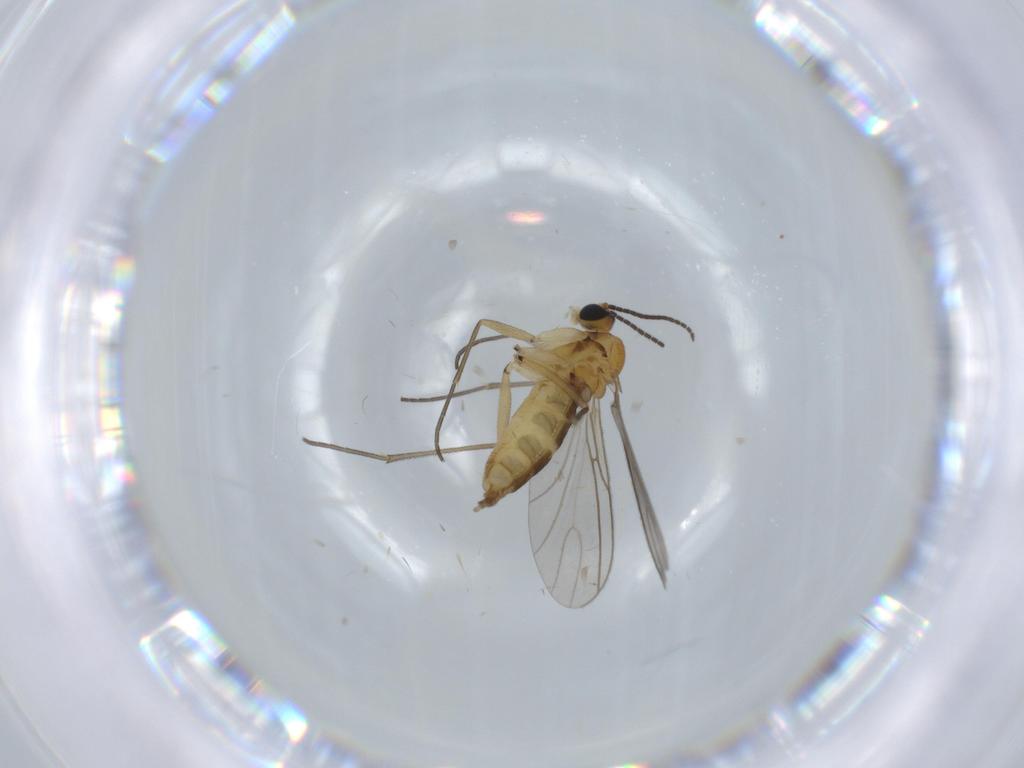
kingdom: Animalia
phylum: Arthropoda
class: Insecta
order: Diptera
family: Sciaridae
